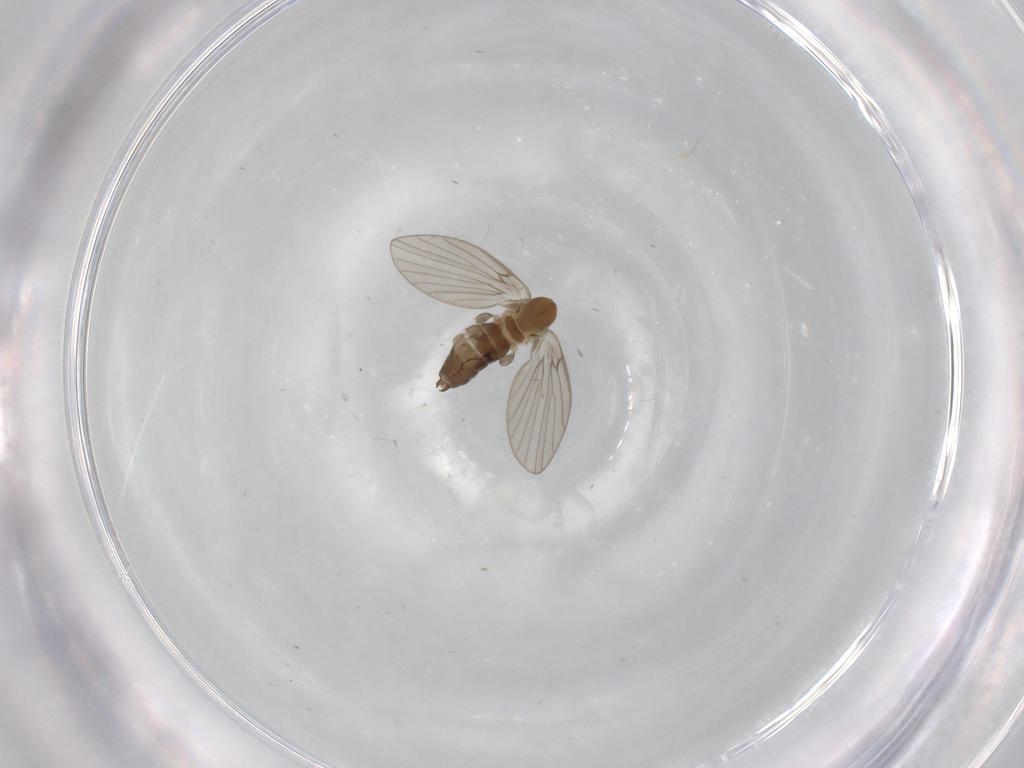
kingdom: Animalia
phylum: Arthropoda
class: Insecta
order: Diptera
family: Psychodidae
